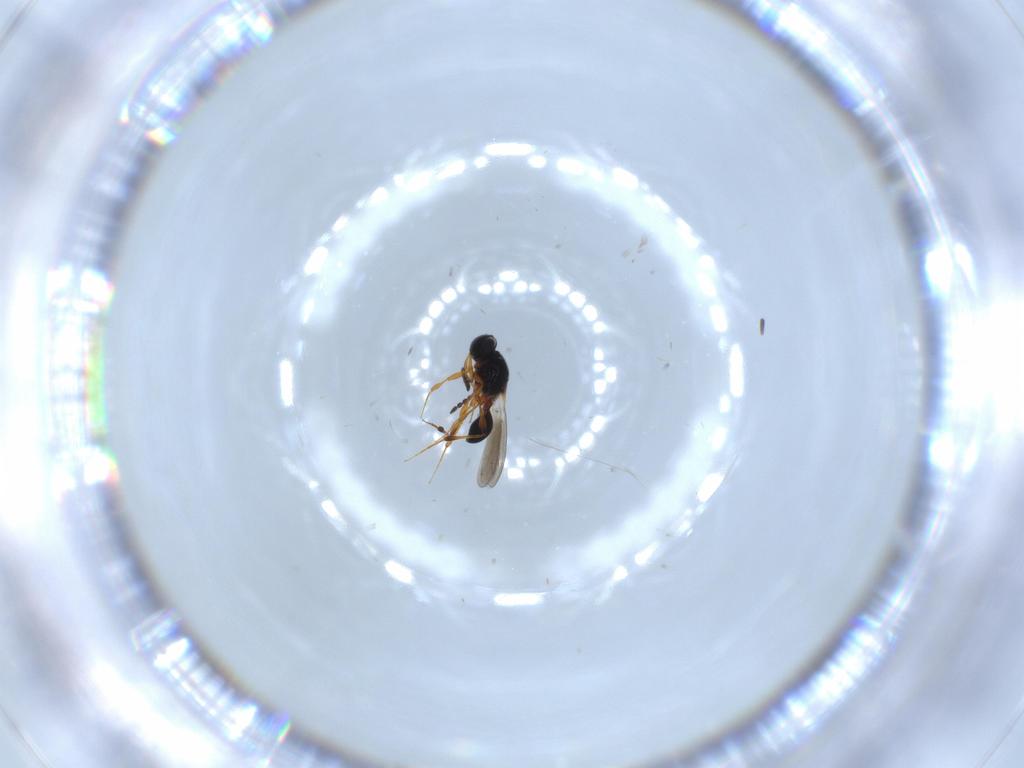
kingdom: Animalia
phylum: Arthropoda
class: Insecta
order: Hymenoptera
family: Platygastridae
